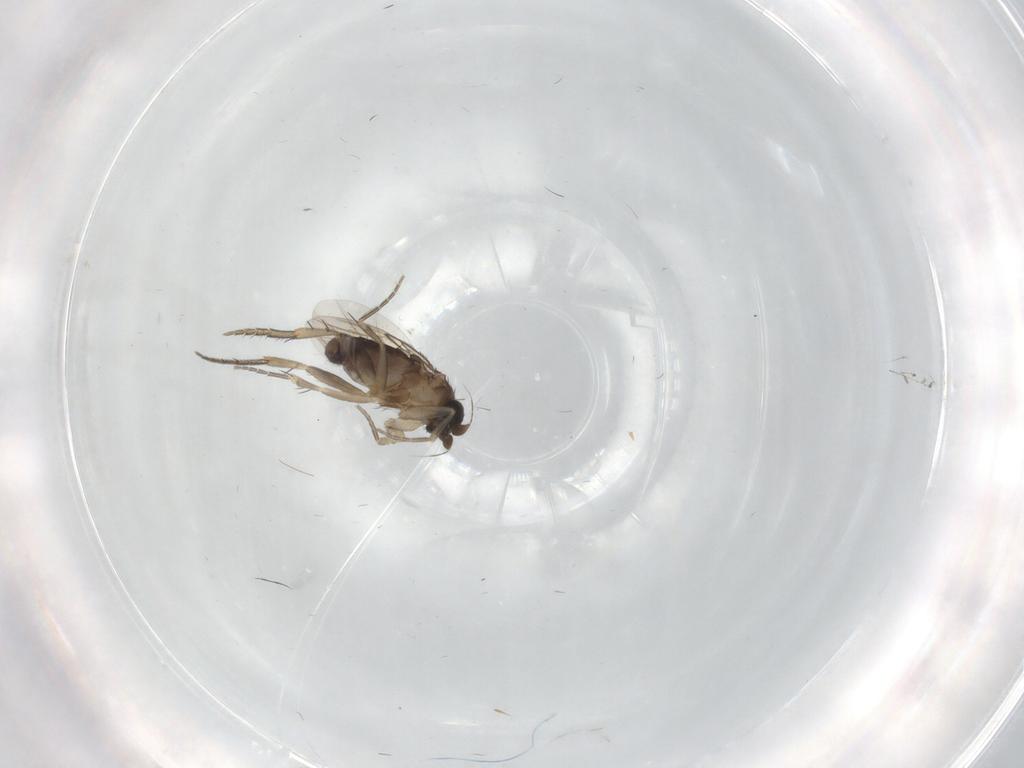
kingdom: Animalia
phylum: Arthropoda
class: Insecta
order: Diptera
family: Phoridae
